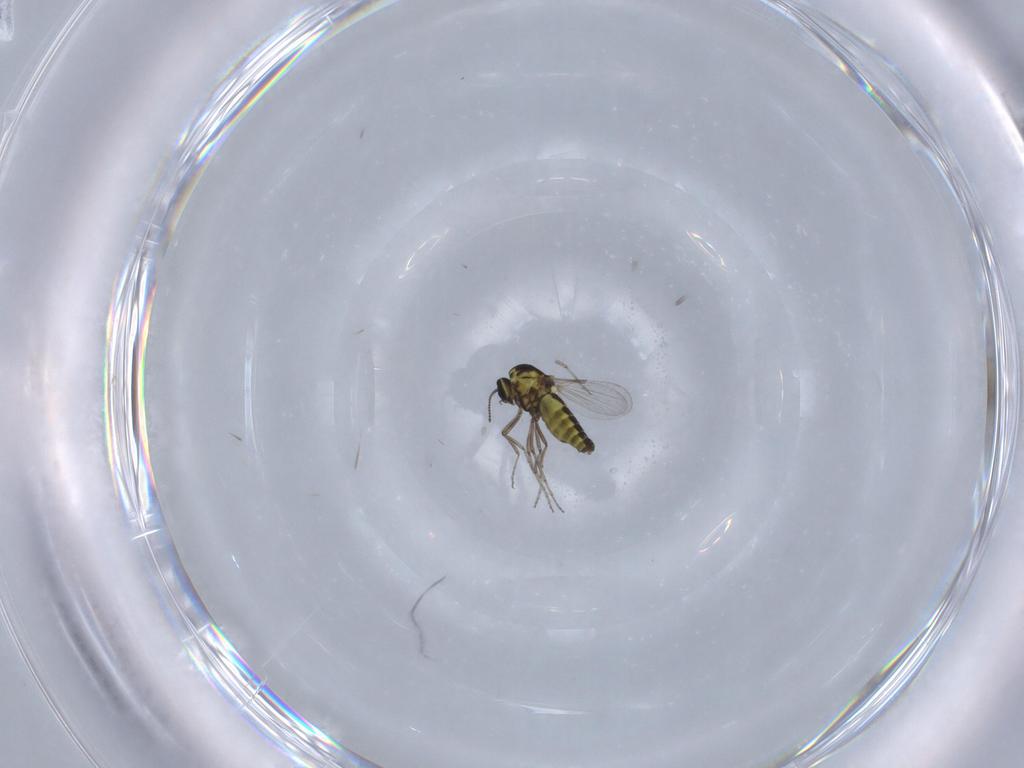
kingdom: Animalia
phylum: Arthropoda
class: Insecta
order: Diptera
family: Ceratopogonidae
